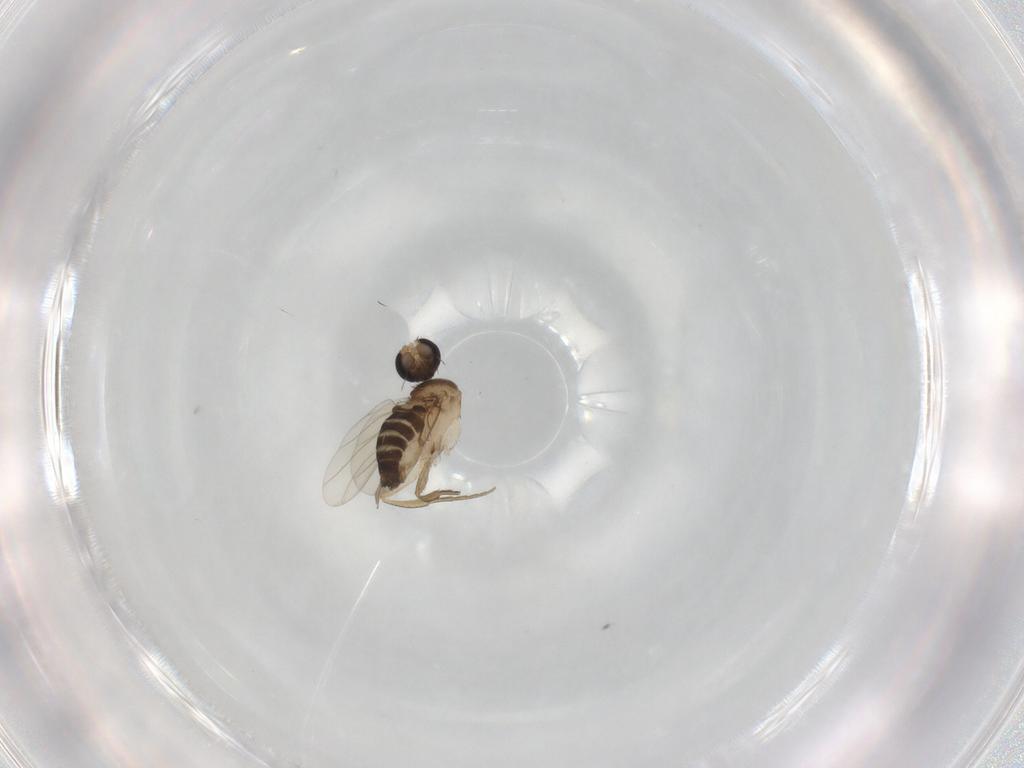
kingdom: Animalia
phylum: Arthropoda
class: Insecta
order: Diptera
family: Psychodidae
